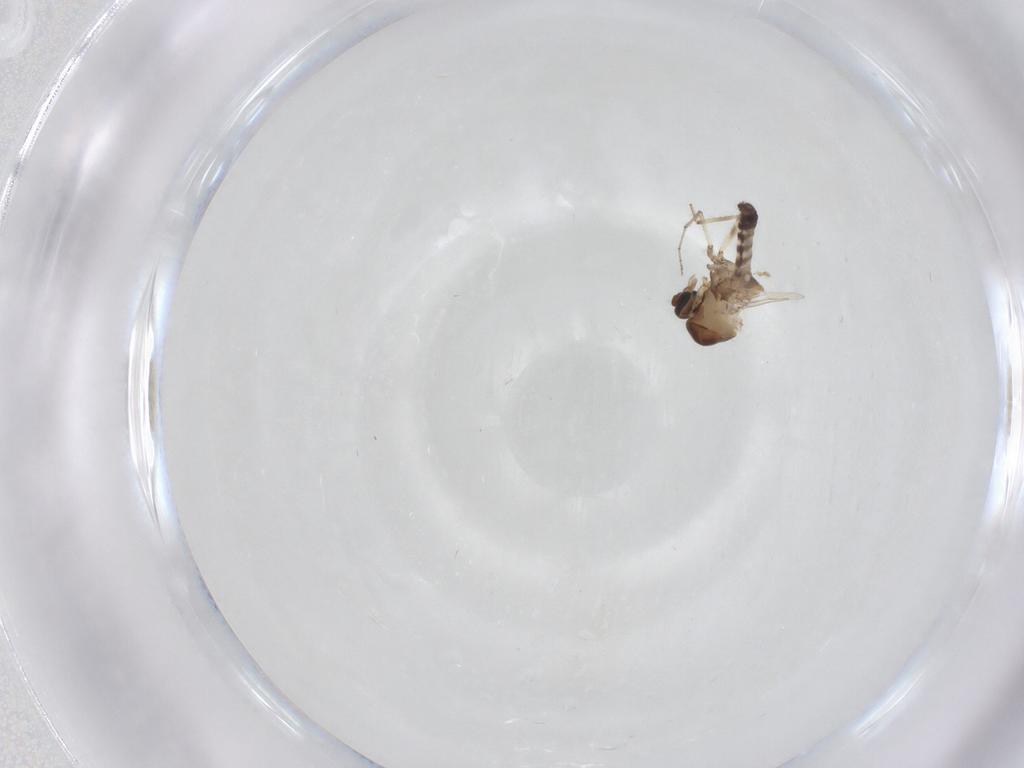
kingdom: Animalia
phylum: Arthropoda
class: Insecta
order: Diptera
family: Ceratopogonidae
